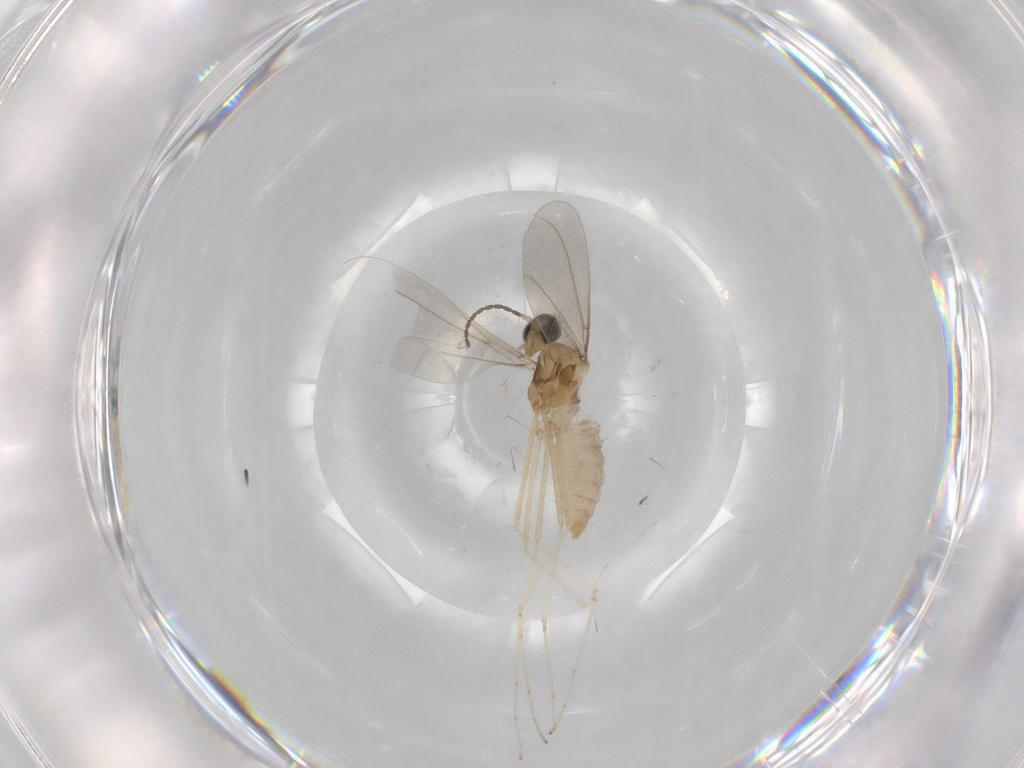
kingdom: Animalia
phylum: Arthropoda
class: Insecta
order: Diptera
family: Cecidomyiidae
